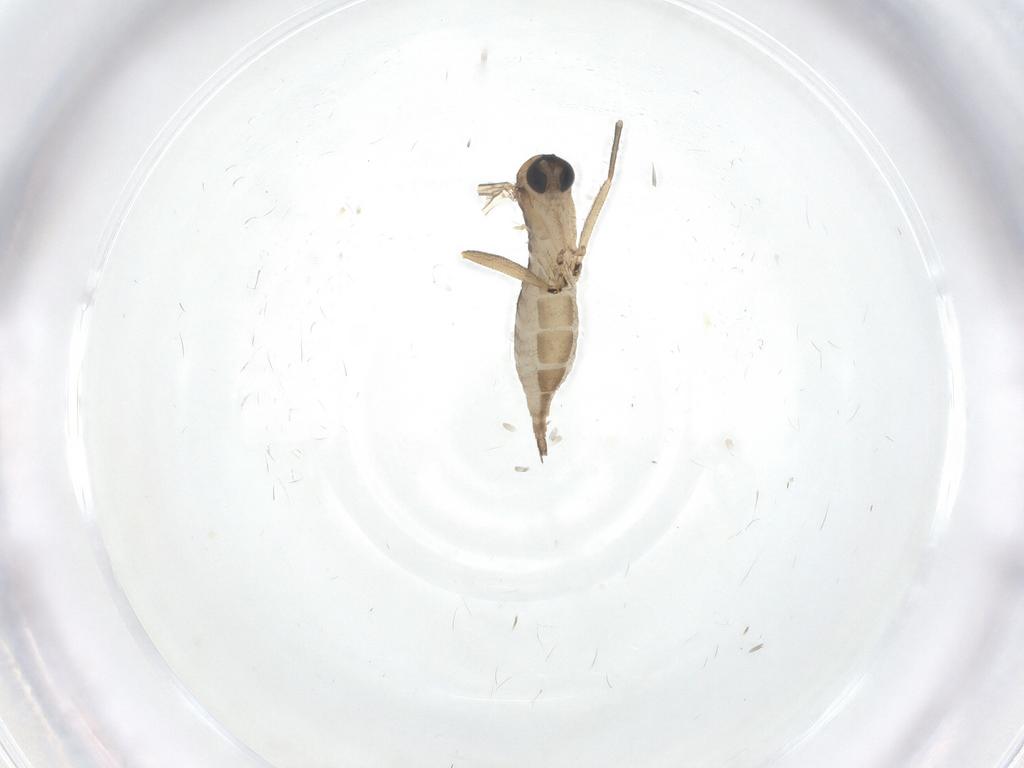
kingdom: Animalia
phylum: Arthropoda
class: Insecta
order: Diptera
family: Sciaridae
